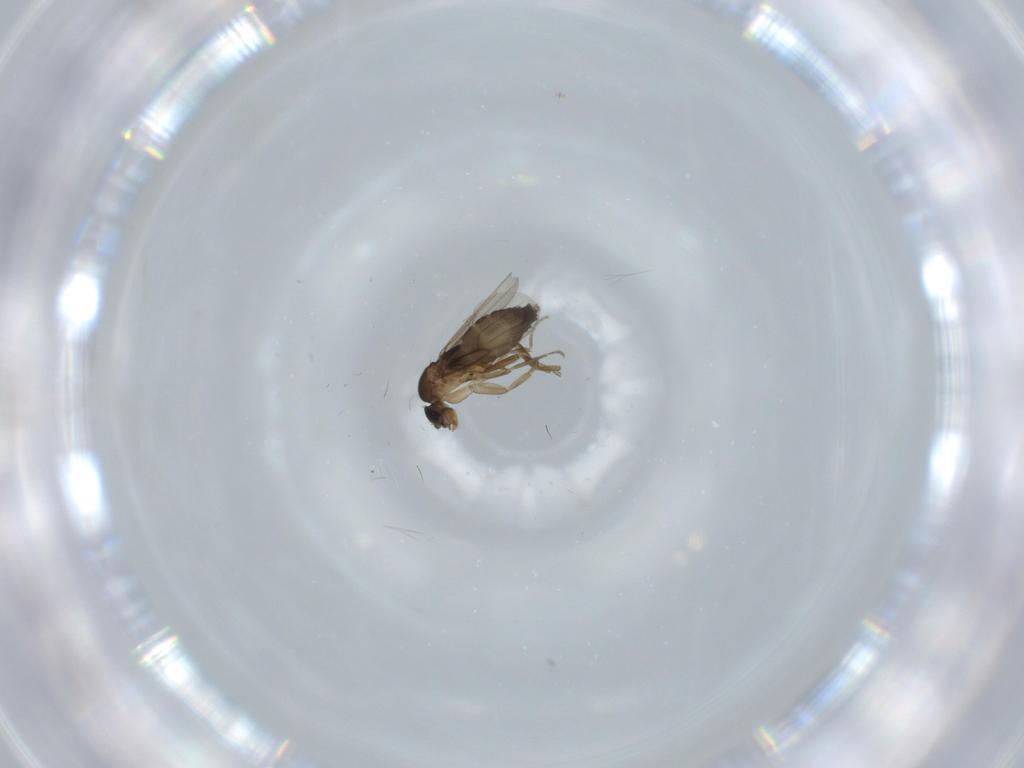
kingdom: Animalia
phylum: Arthropoda
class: Insecta
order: Diptera
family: Phoridae
